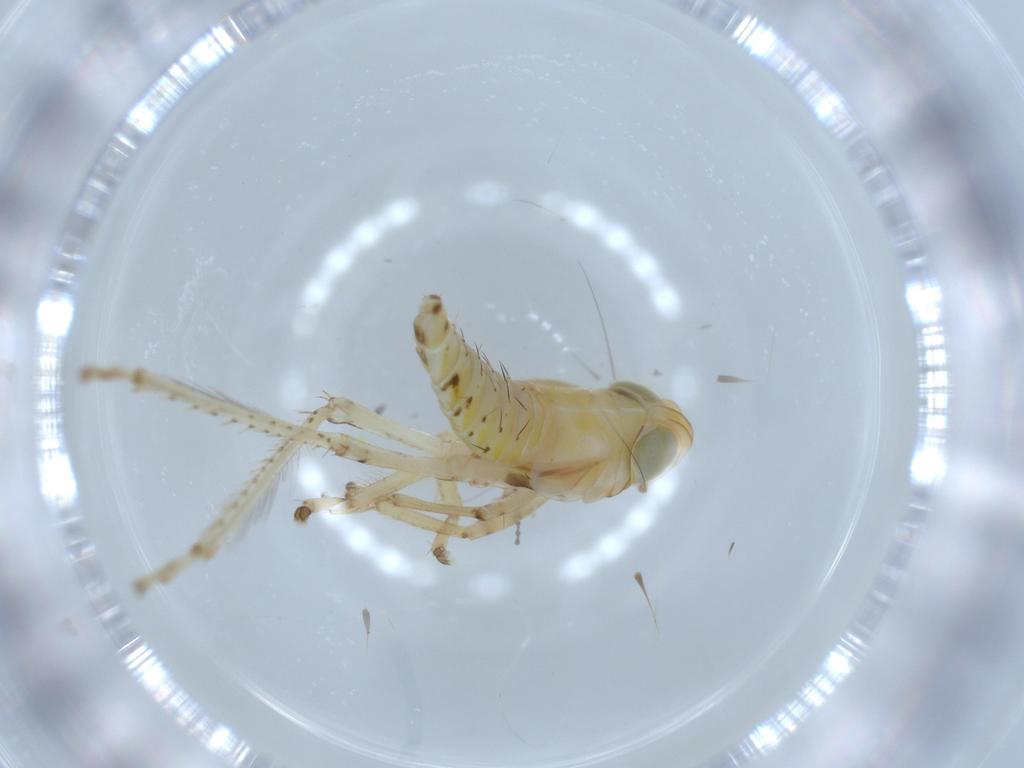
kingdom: Animalia
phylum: Arthropoda
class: Insecta
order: Hemiptera
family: Cicadellidae
